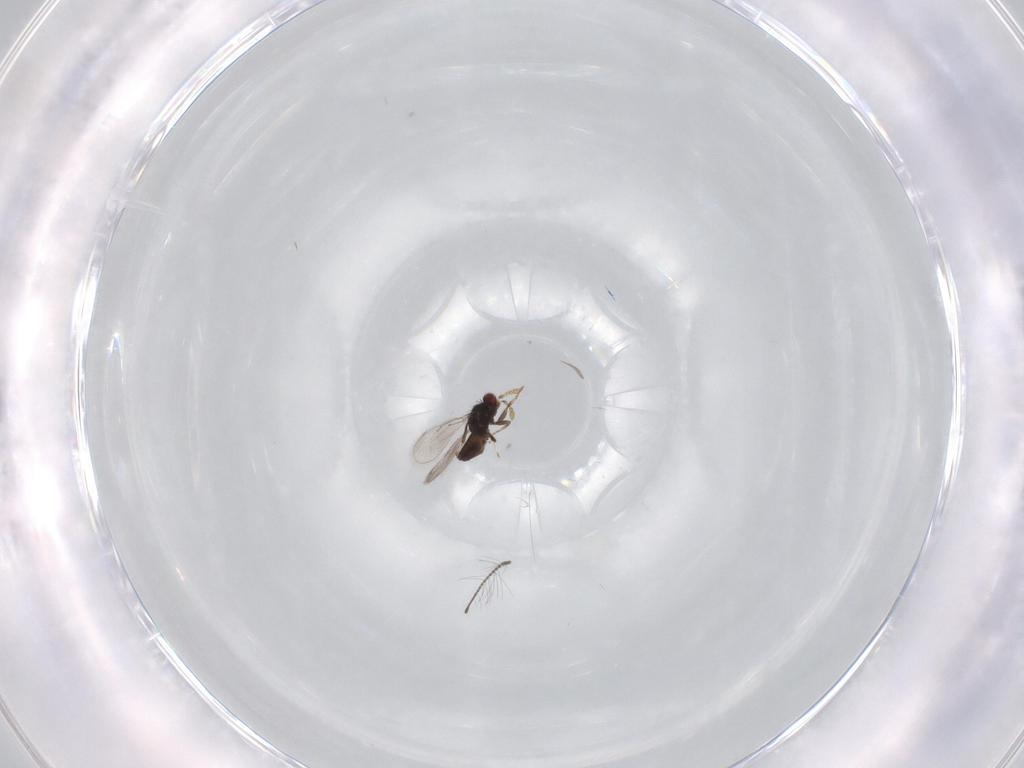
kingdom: Animalia
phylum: Arthropoda
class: Insecta
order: Hymenoptera
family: Eulophidae
